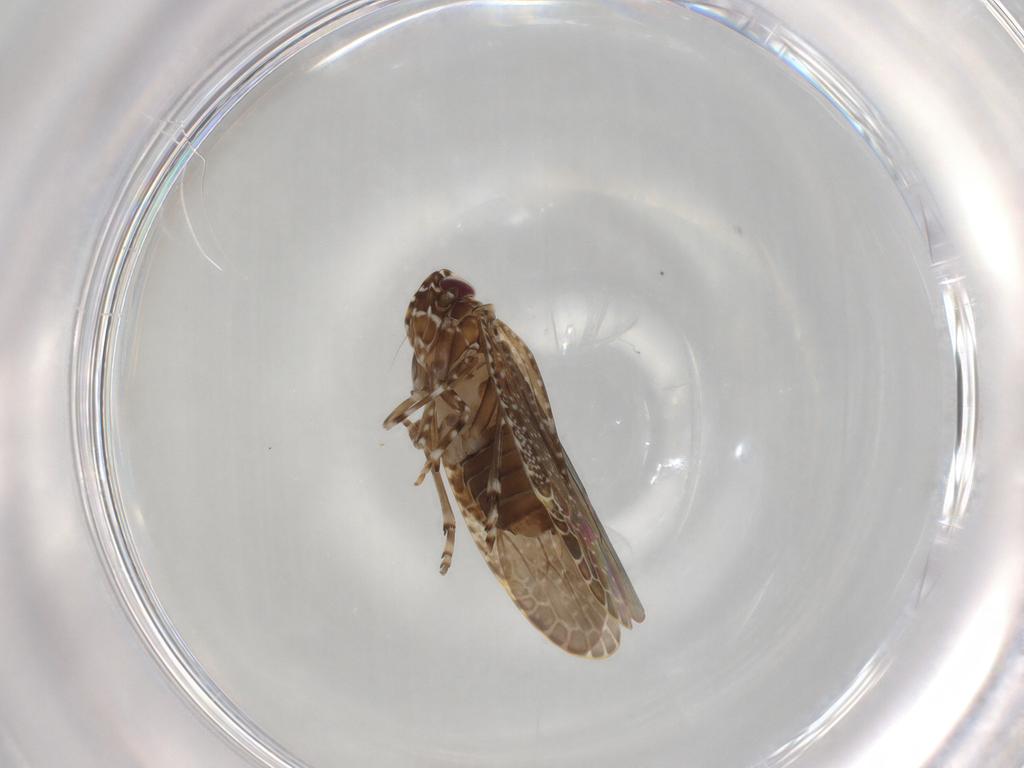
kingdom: Animalia
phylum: Arthropoda
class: Insecta
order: Hemiptera
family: Achilidae
